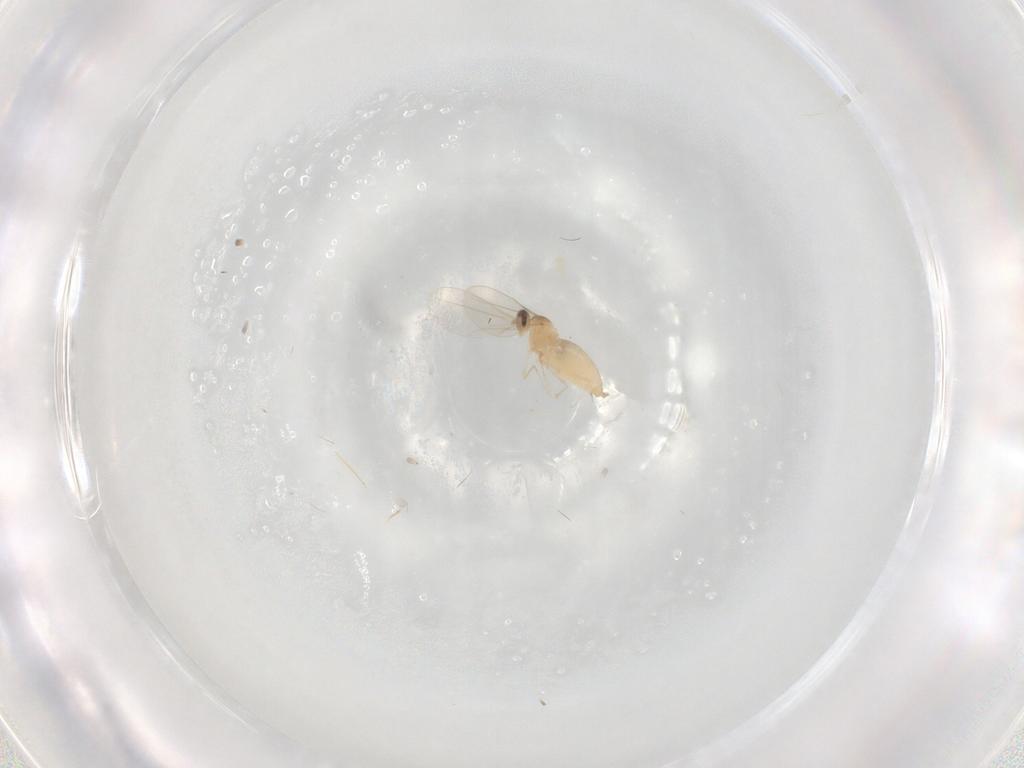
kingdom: Animalia
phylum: Arthropoda
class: Insecta
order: Diptera
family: Cecidomyiidae
